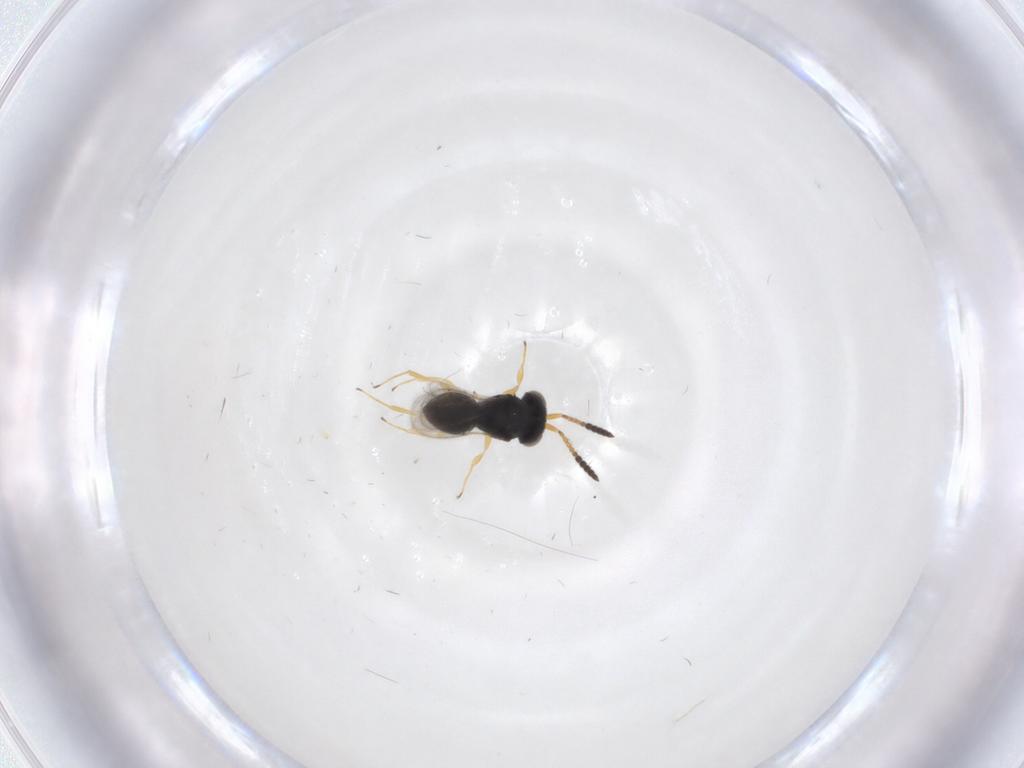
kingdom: Animalia
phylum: Arthropoda
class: Insecta
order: Hymenoptera
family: Scelionidae
